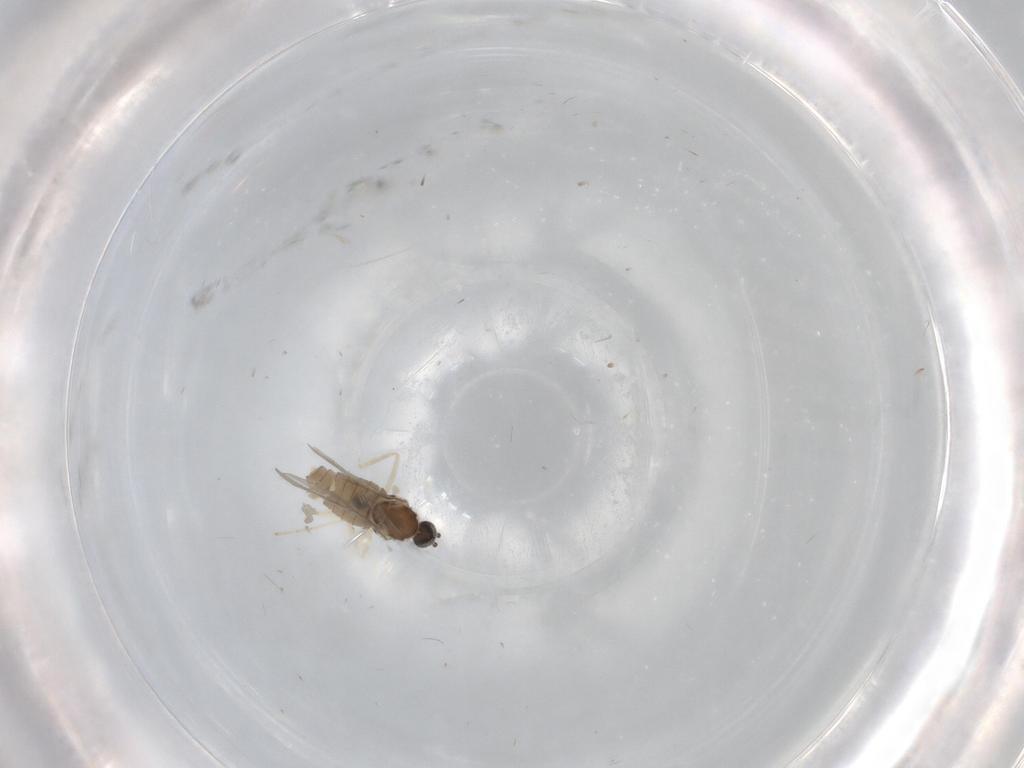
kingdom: Animalia
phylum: Arthropoda
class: Insecta
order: Diptera
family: Cecidomyiidae
